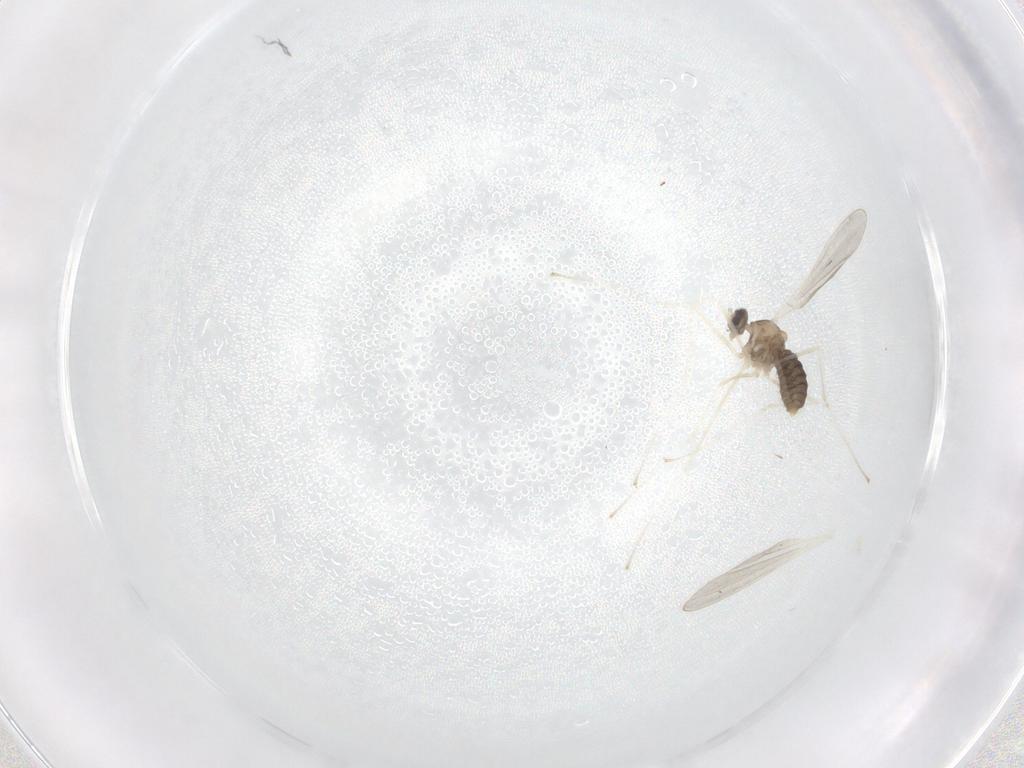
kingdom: Animalia
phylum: Arthropoda
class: Insecta
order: Diptera
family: Cecidomyiidae
